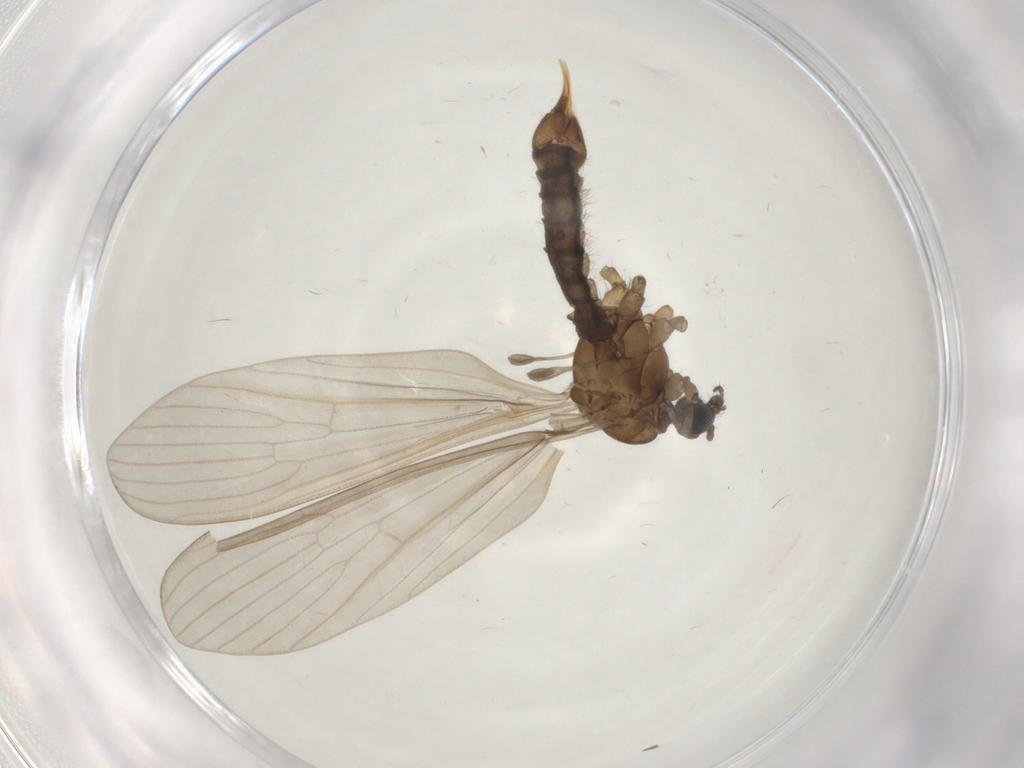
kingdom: Animalia
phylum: Arthropoda
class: Insecta
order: Diptera
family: Limoniidae
